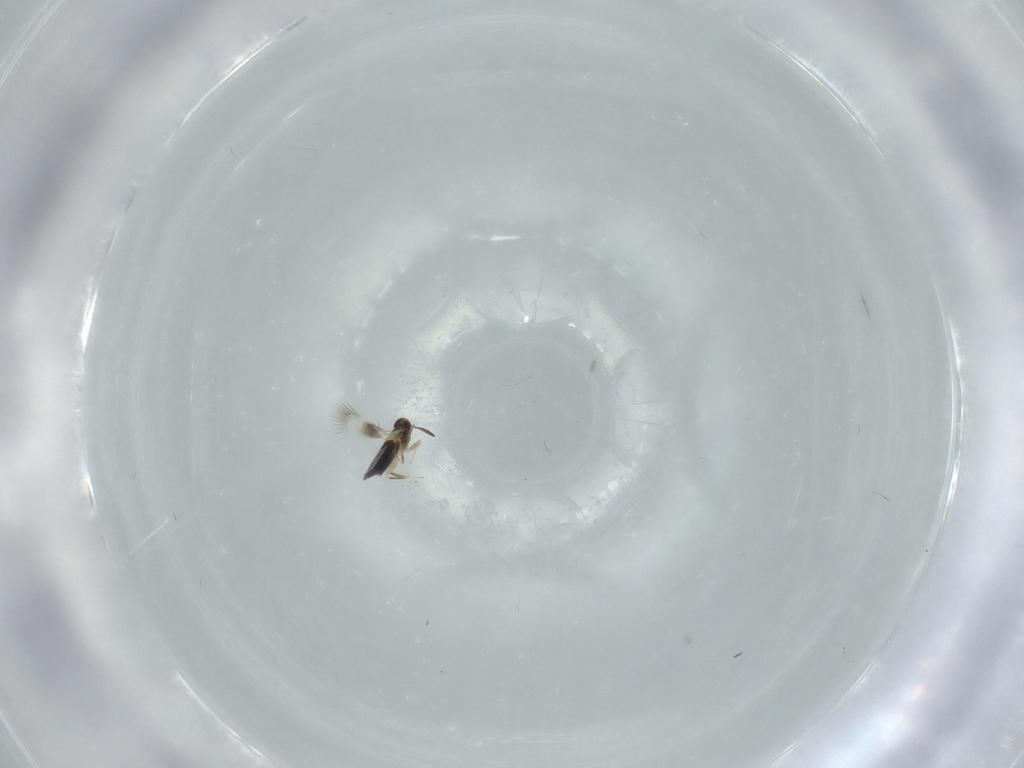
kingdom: Animalia
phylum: Arthropoda
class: Insecta
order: Hymenoptera
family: Signiphoridae
